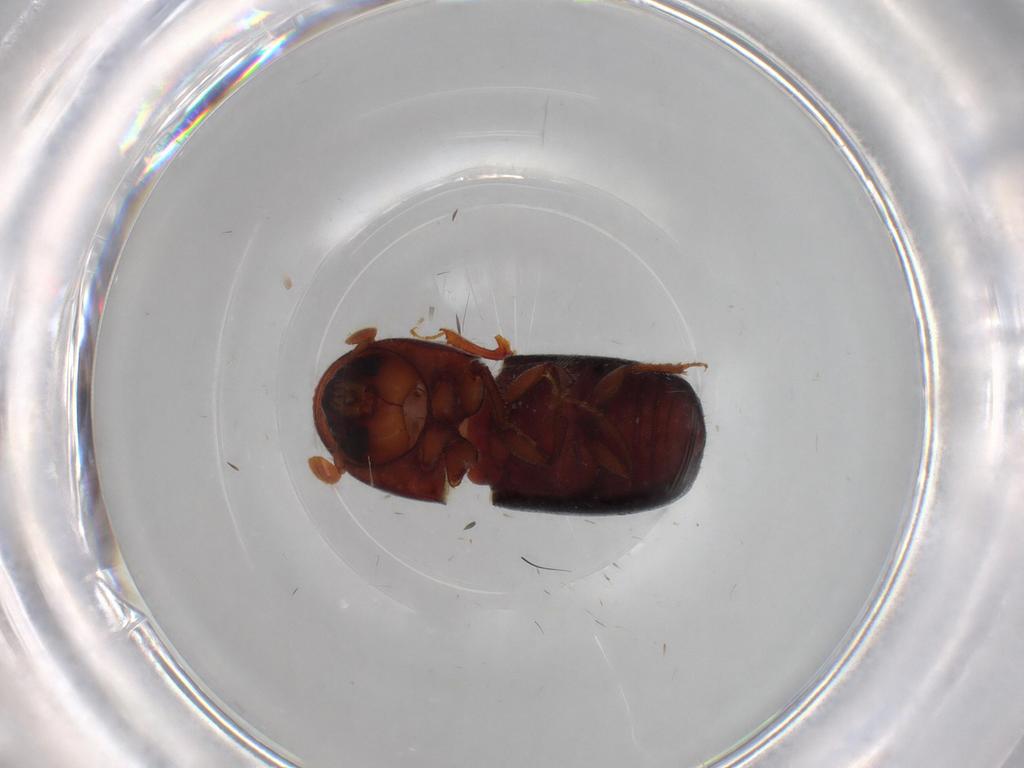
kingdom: Animalia
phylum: Arthropoda
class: Insecta
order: Coleoptera
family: Curculionidae
